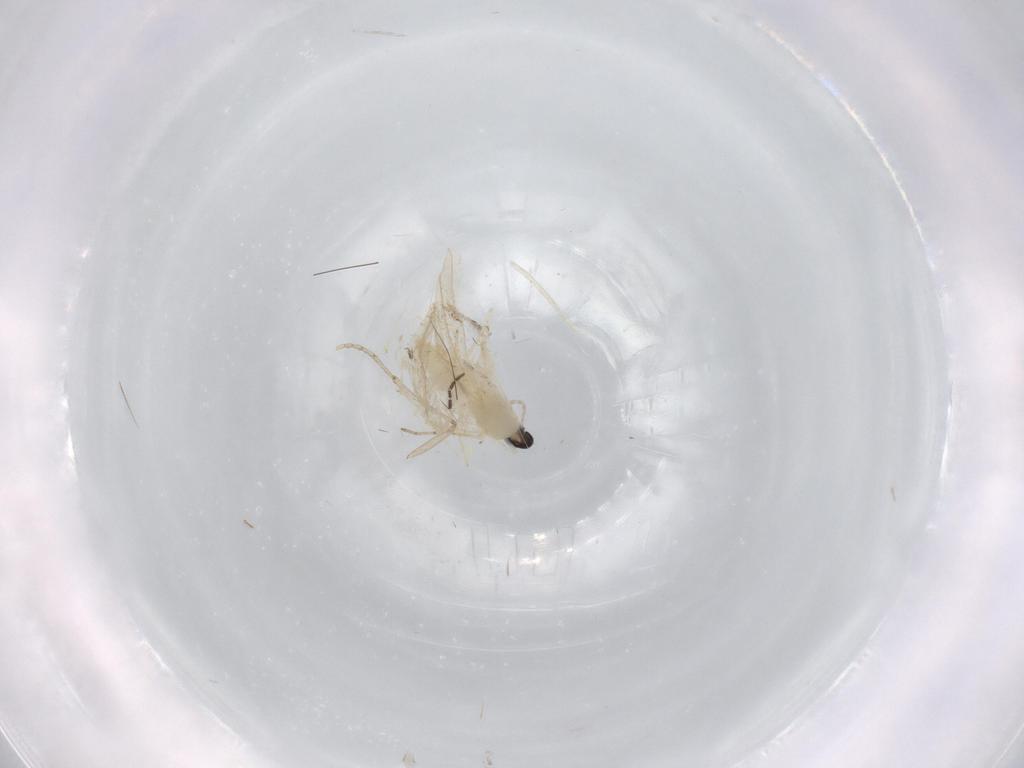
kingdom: Animalia
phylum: Arthropoda
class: Insecta
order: Diptera
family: Cecidomyiidae
